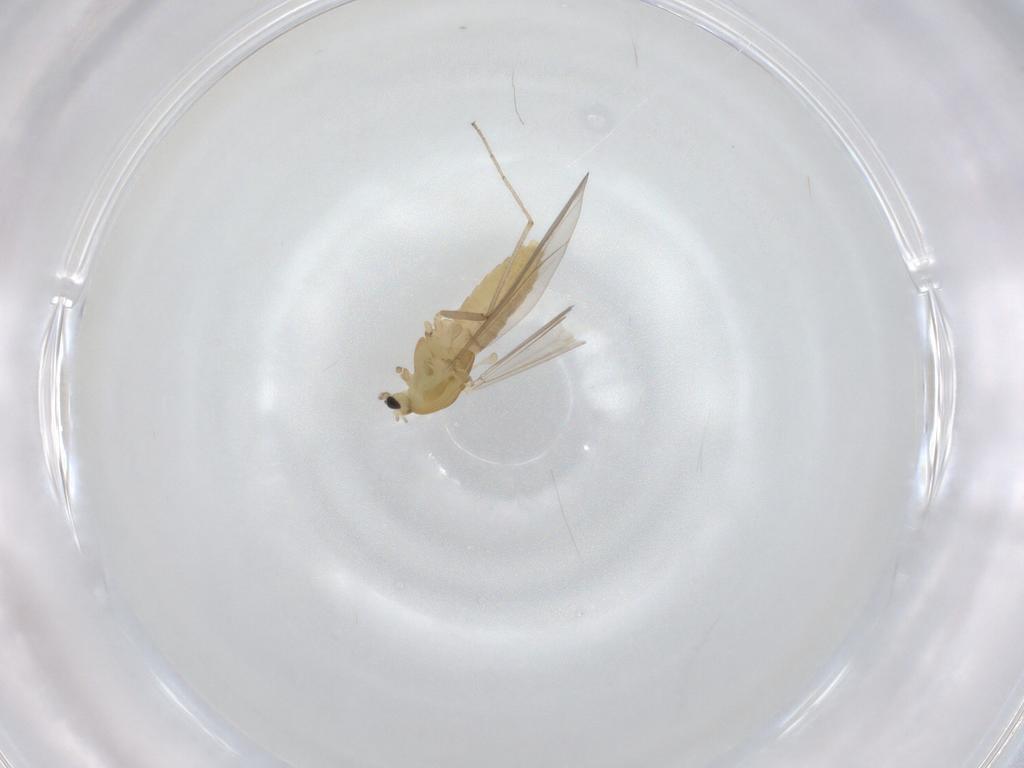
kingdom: Animalia
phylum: Arthropoda
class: Insecta
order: Diptera
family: Chironomidae
